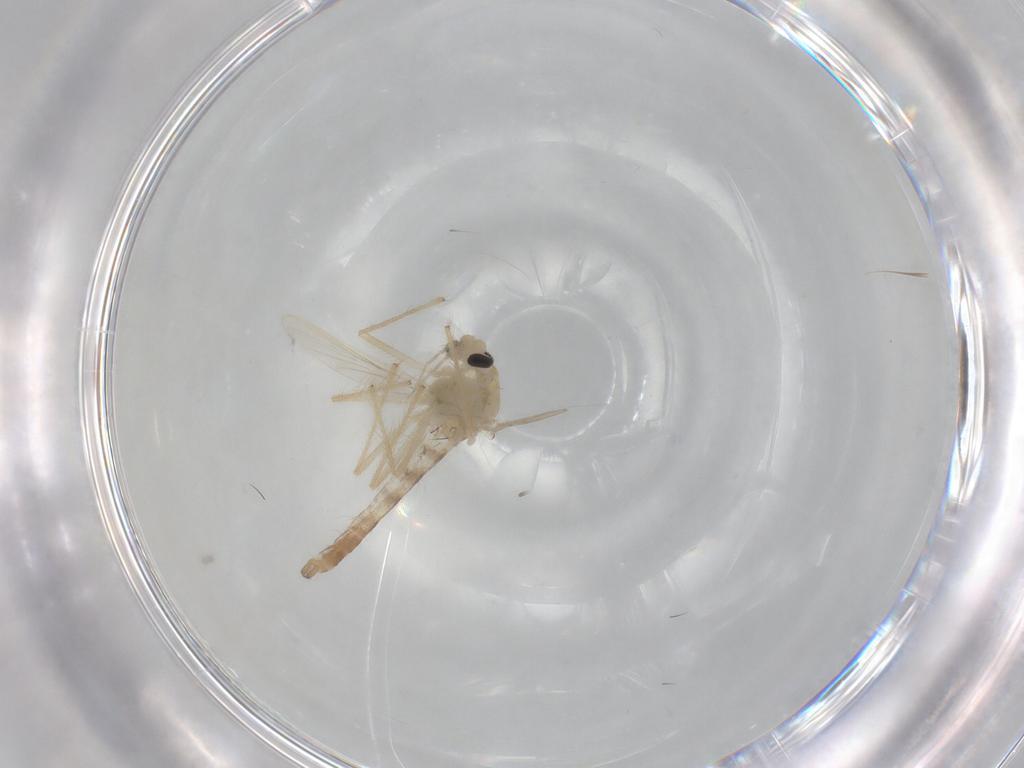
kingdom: Animalia
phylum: Arthropoda
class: Insecta
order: Diptera
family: Chironomidae
